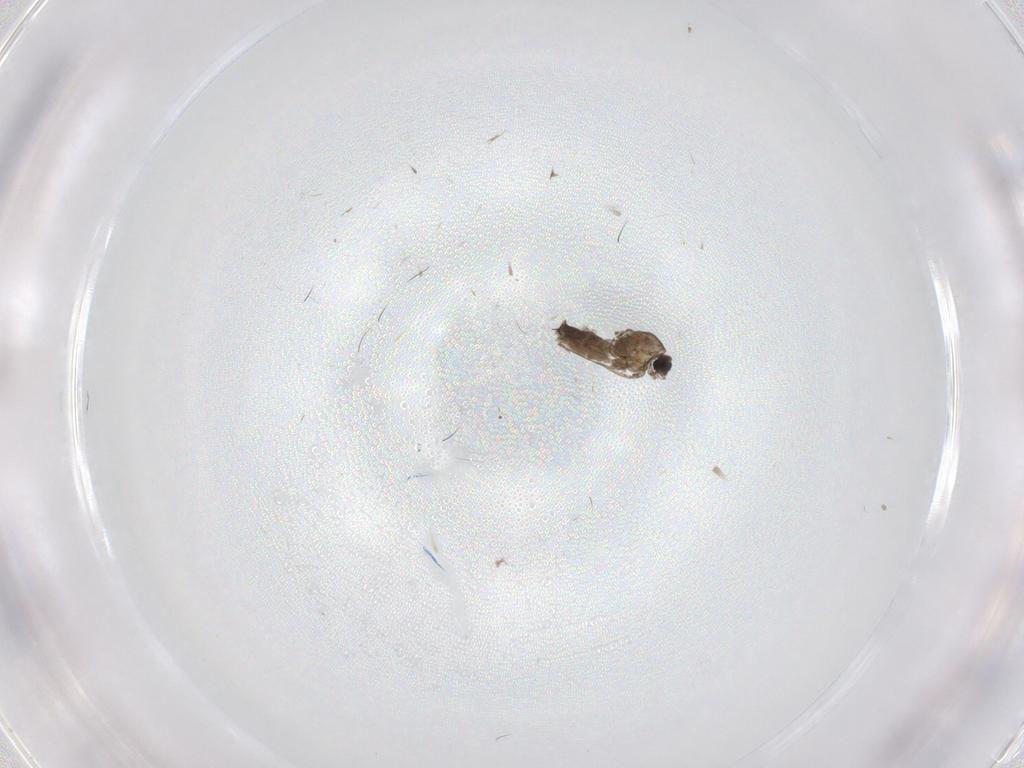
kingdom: Animalia
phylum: Arthropoda
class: Insecta
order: Diptera
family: Cecidomyiidae
